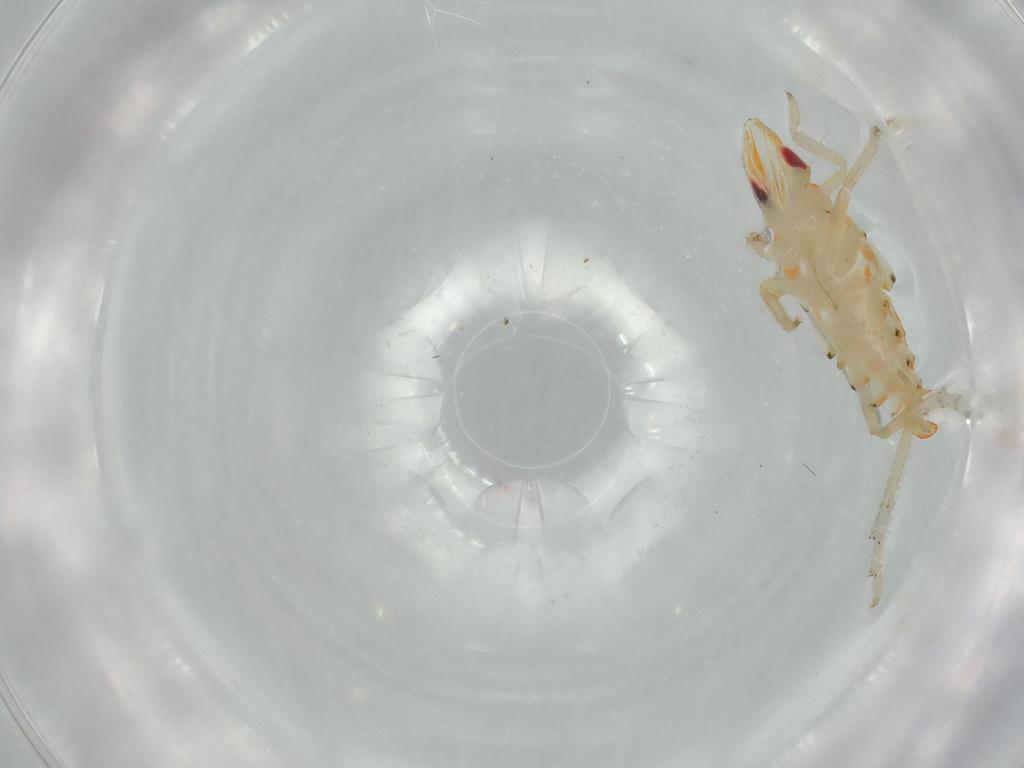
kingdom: Animalia
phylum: Arthropoda
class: Insecta
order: Hemiptera
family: Tropiduchidae
